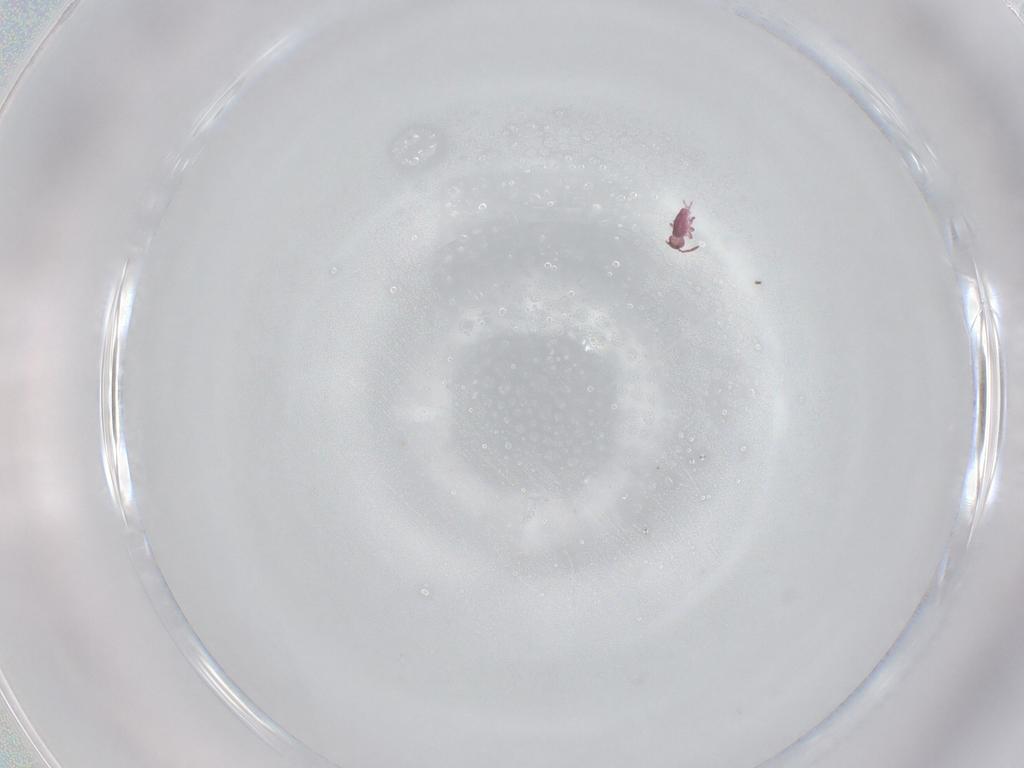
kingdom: Animalia
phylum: Arthropoda
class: Collembola
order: Symphypleona
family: Sminthurididae
